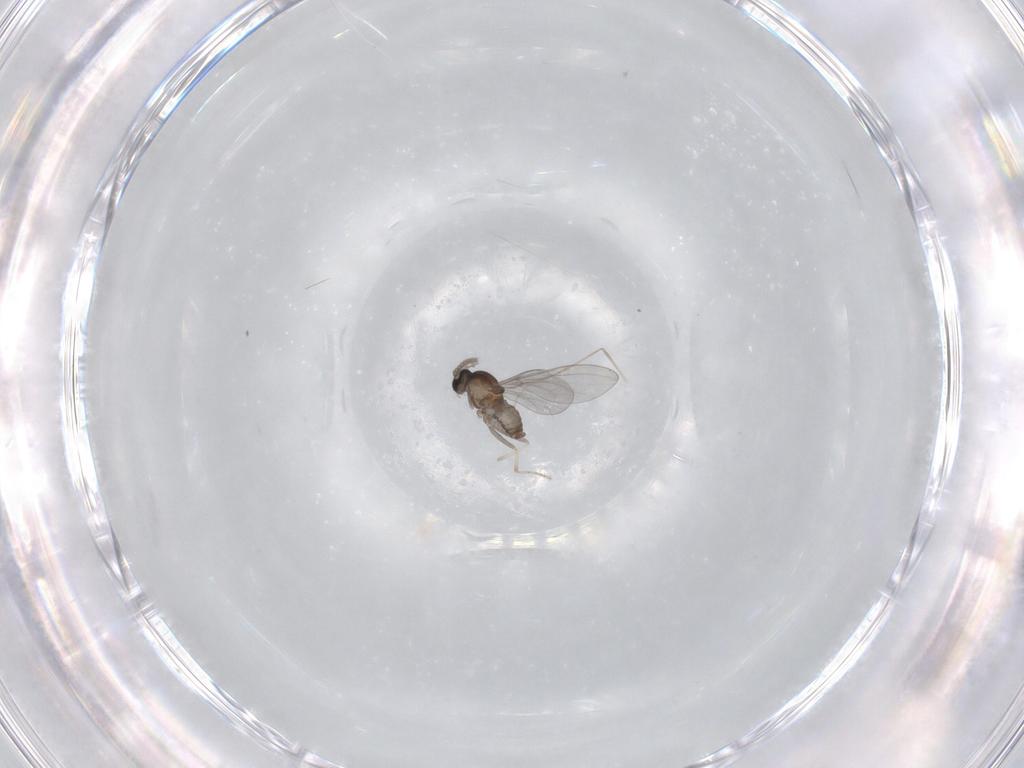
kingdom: Animalia
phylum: Arthropoda
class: Insecta
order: Diptera
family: Cecidomyiidae
